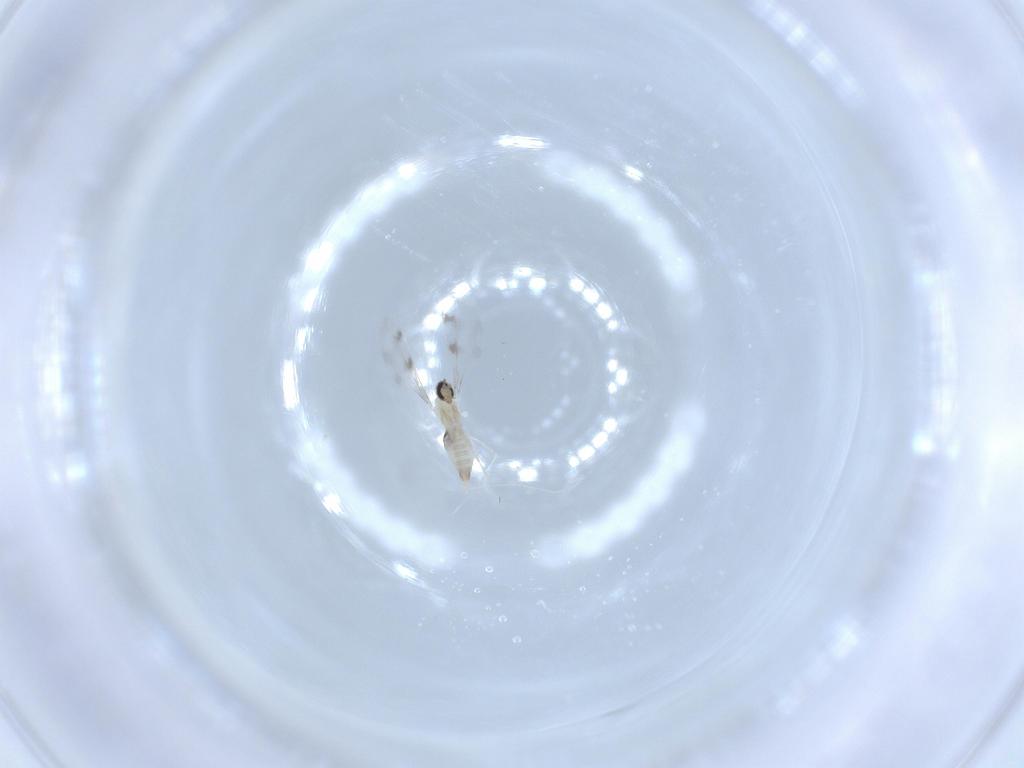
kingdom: Animalia
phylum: Arthropoda
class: Insecta
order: Diptera
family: Cecidomyiidae
